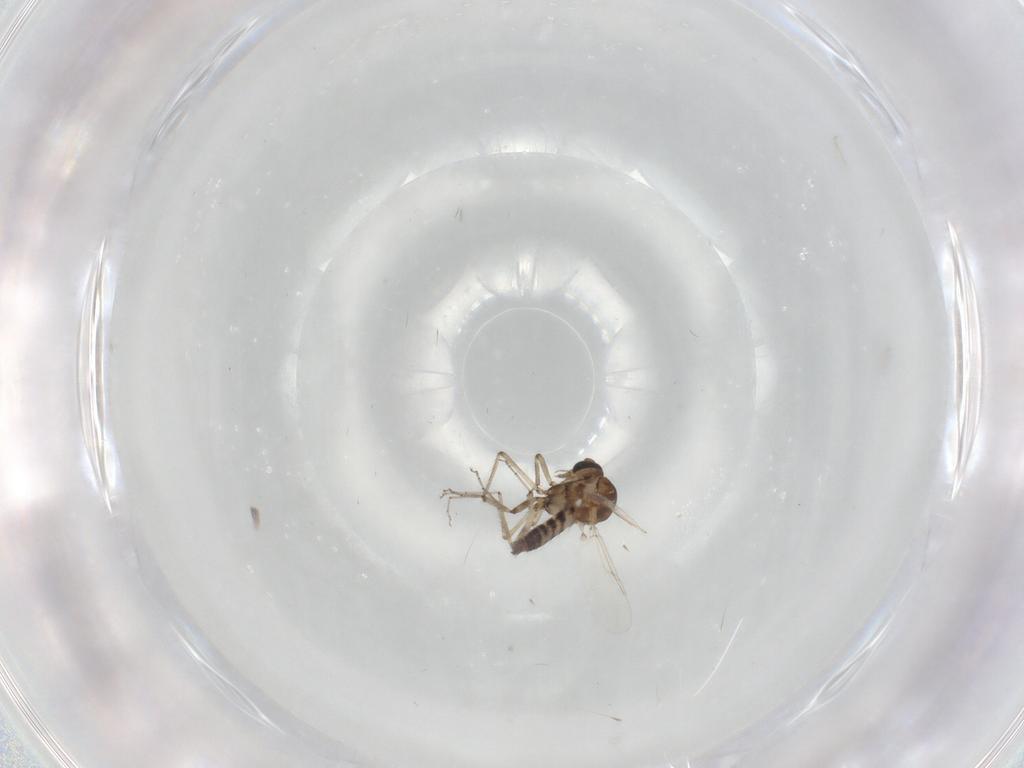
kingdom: Animalia
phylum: Arthropoda
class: Insecta
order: Diptera
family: Ceratopogonidae
